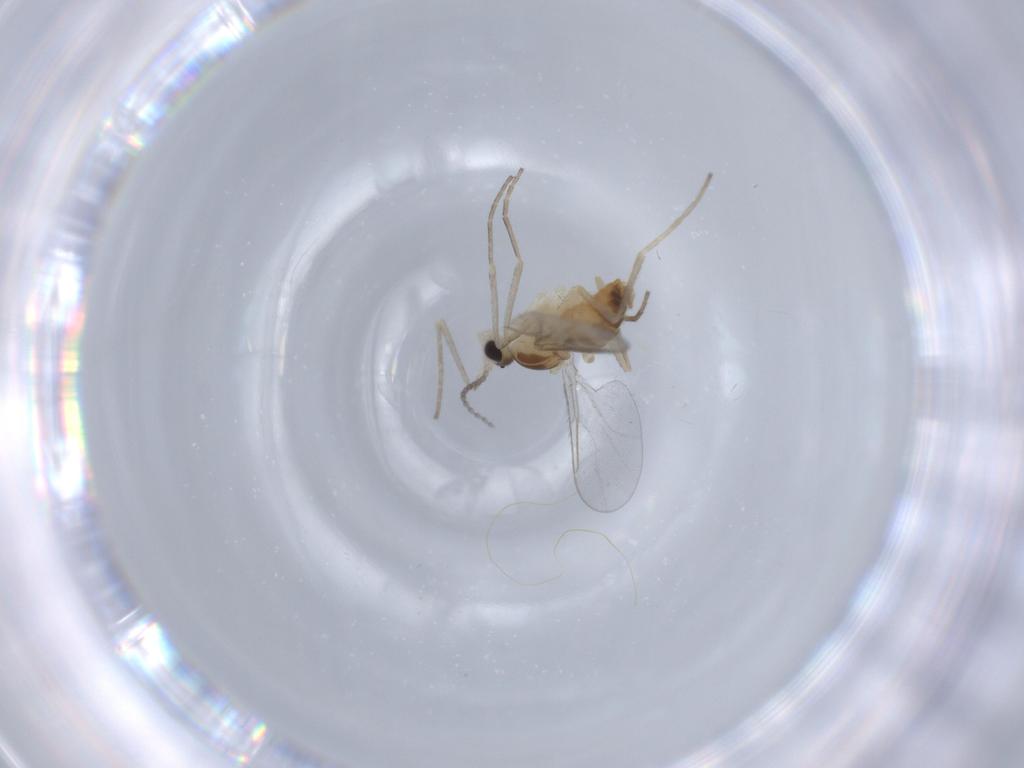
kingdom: Animalia
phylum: Arthropoda
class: Insecta
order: Diptera
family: Cecidomyiidae
